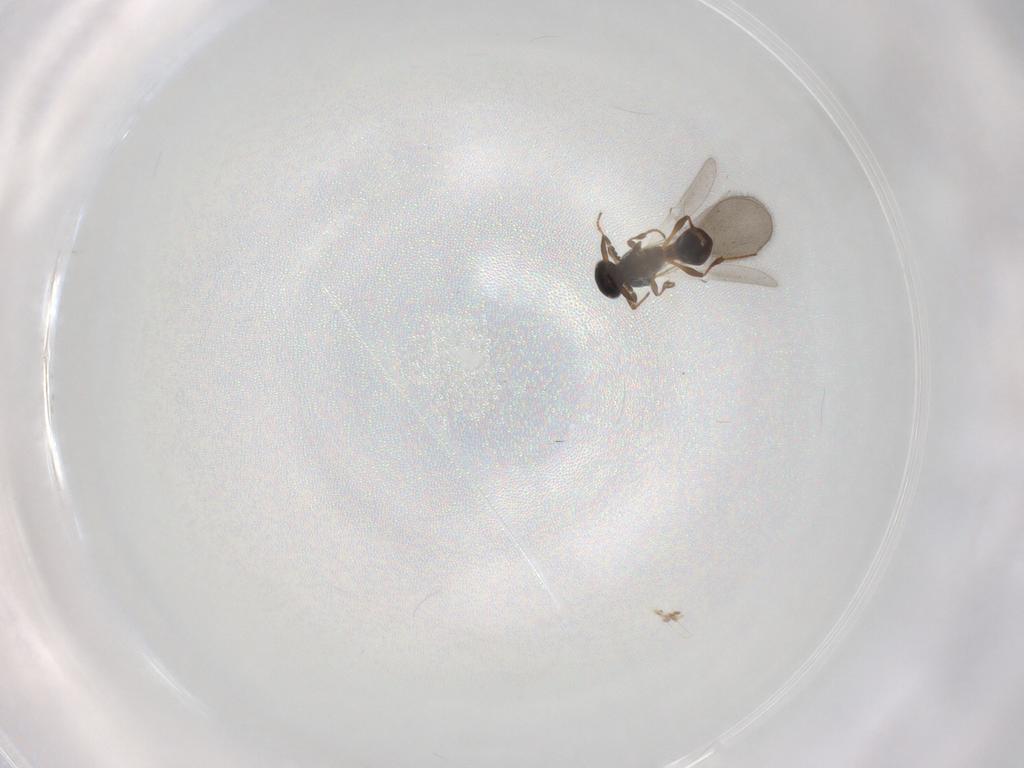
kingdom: Animalia
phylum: Arthropoda
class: Insecta
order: Hymenoptera
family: Platygastridae
